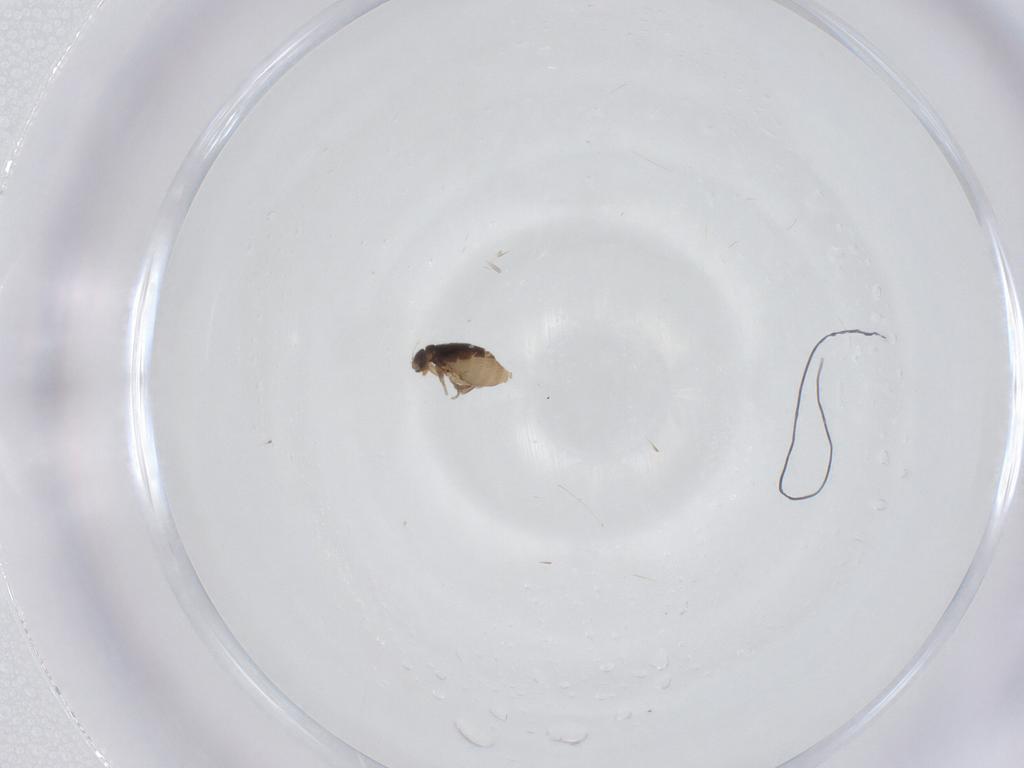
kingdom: Animalia
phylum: Arthropoda
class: Insecta
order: Diptera
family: Phoridae
